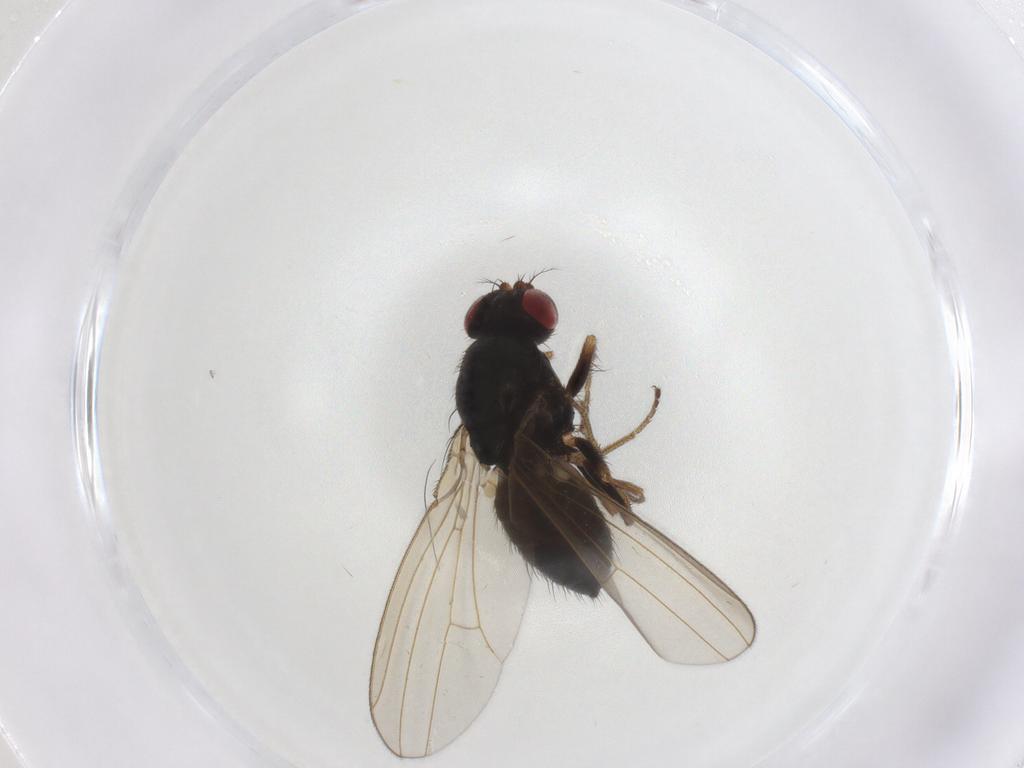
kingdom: Animalia
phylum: Arthropoda
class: Insecta
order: Diptera
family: Drosophilidae
